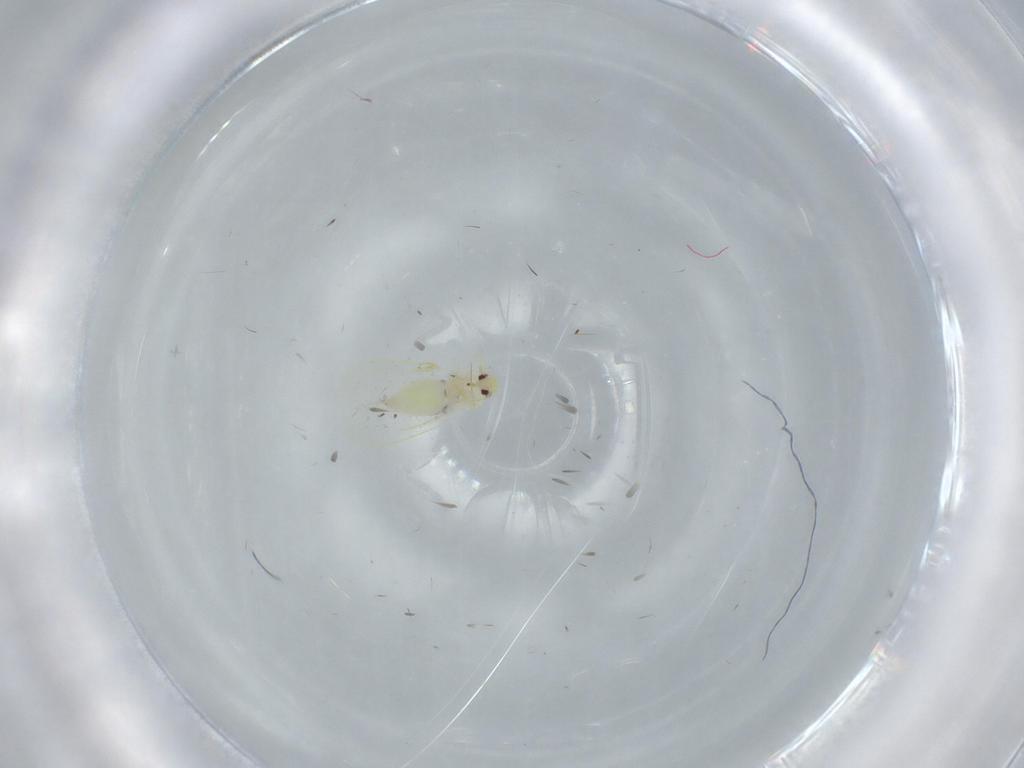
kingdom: Animalia
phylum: Arthropoda
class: Insecta
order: Hemiptera
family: Aleyrodidae
